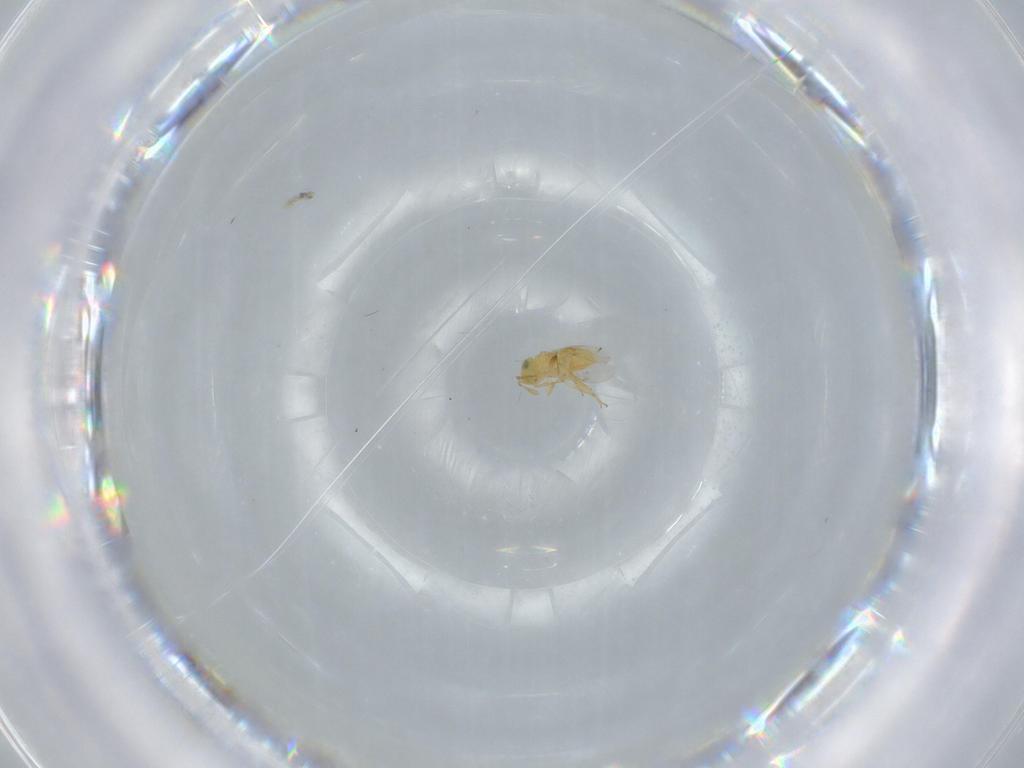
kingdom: Animalia
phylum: Arthropoda
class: Insecta
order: Hymenoptera
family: Encyrtidae
